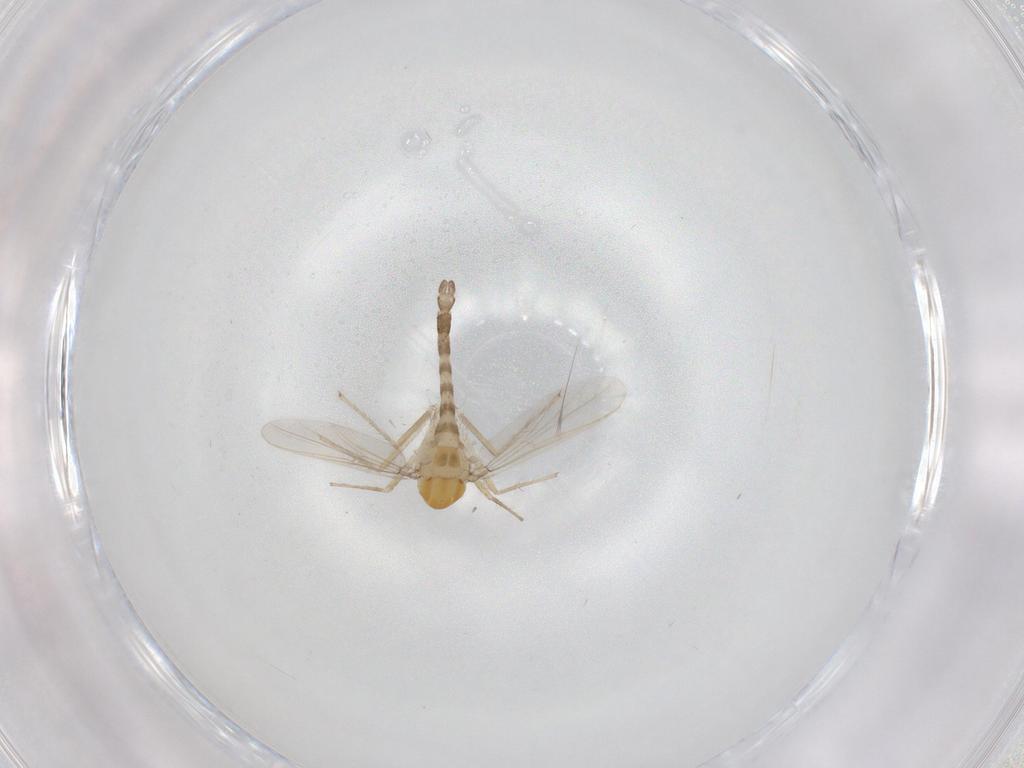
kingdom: Animalia
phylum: Arthropoda
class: Insecta
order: Diptera
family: Chironomidae
